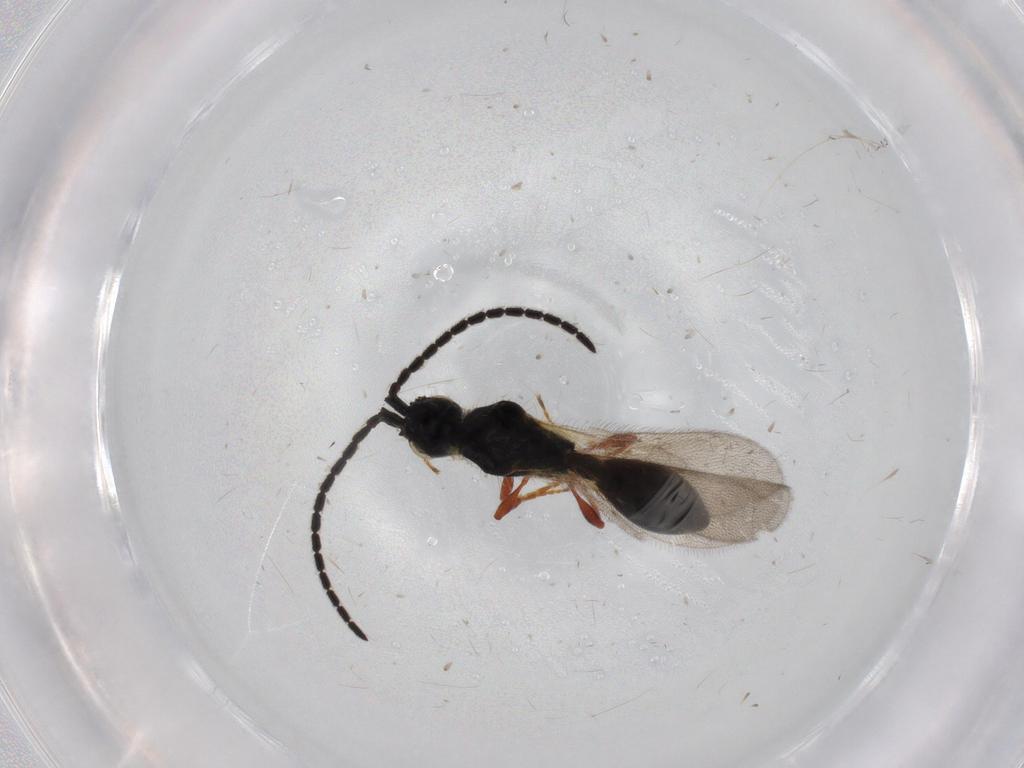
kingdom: Animalia
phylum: Arthropoda
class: Insecta
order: Hymenoptera
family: Diapriidae
